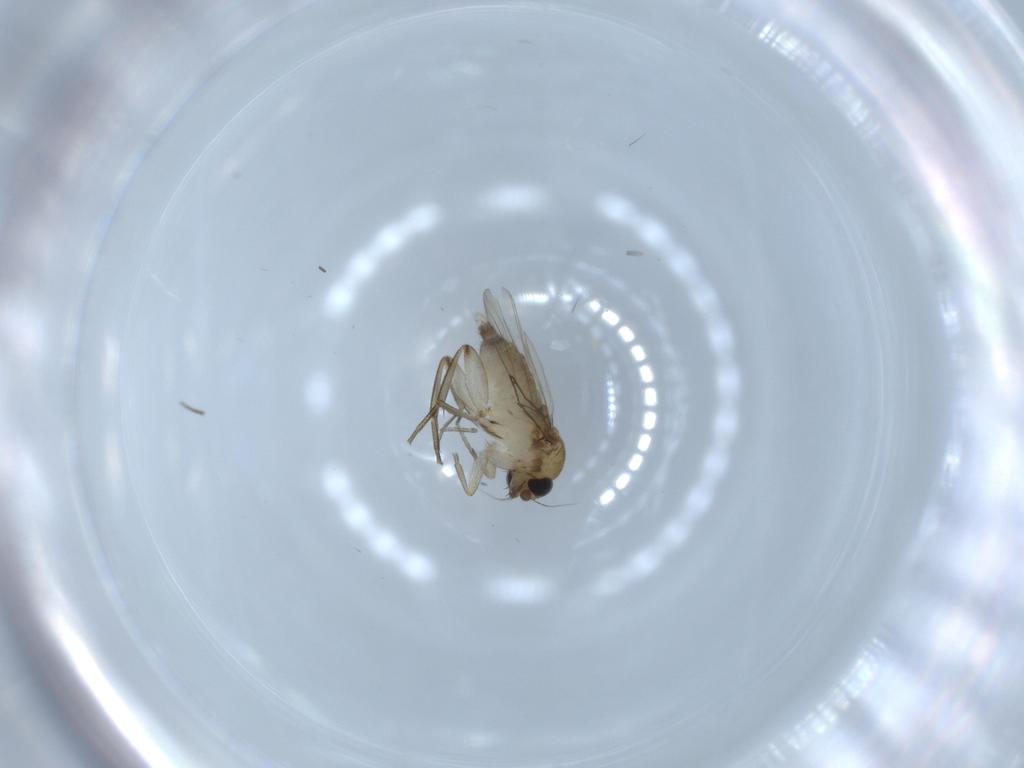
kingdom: Animalia
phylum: Arthropoda
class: Insecta
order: Diptera
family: Phoridae
